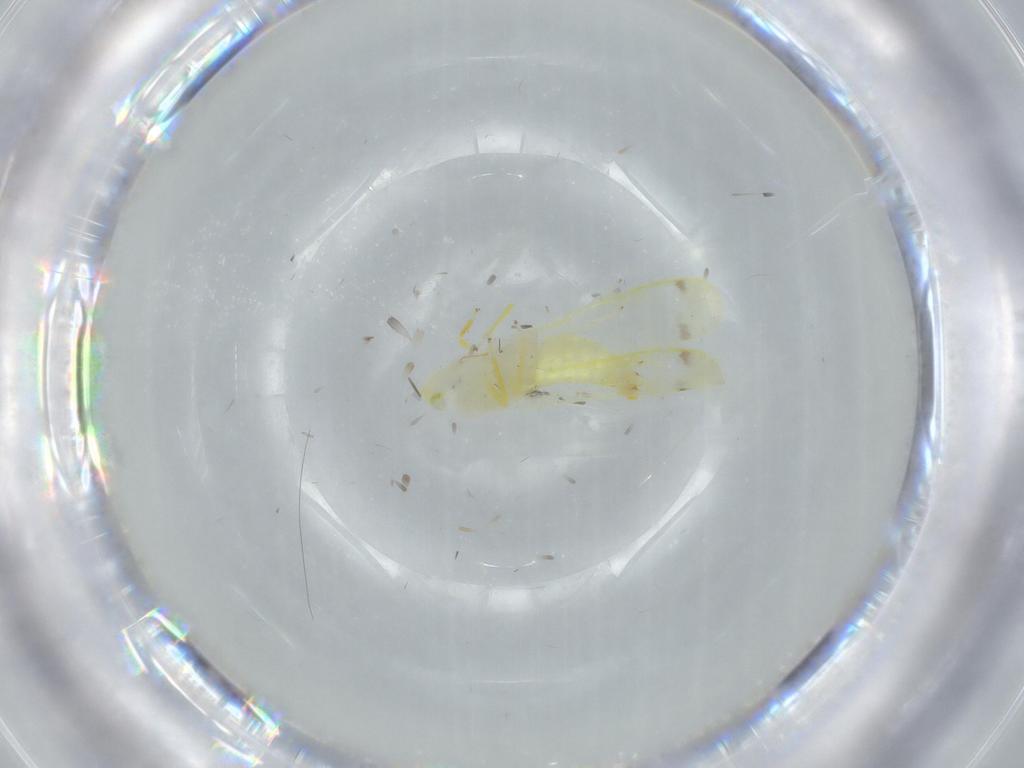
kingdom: Animalia
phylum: Arthropoda
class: Insecta
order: Hemiptera
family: Cicadellidae
